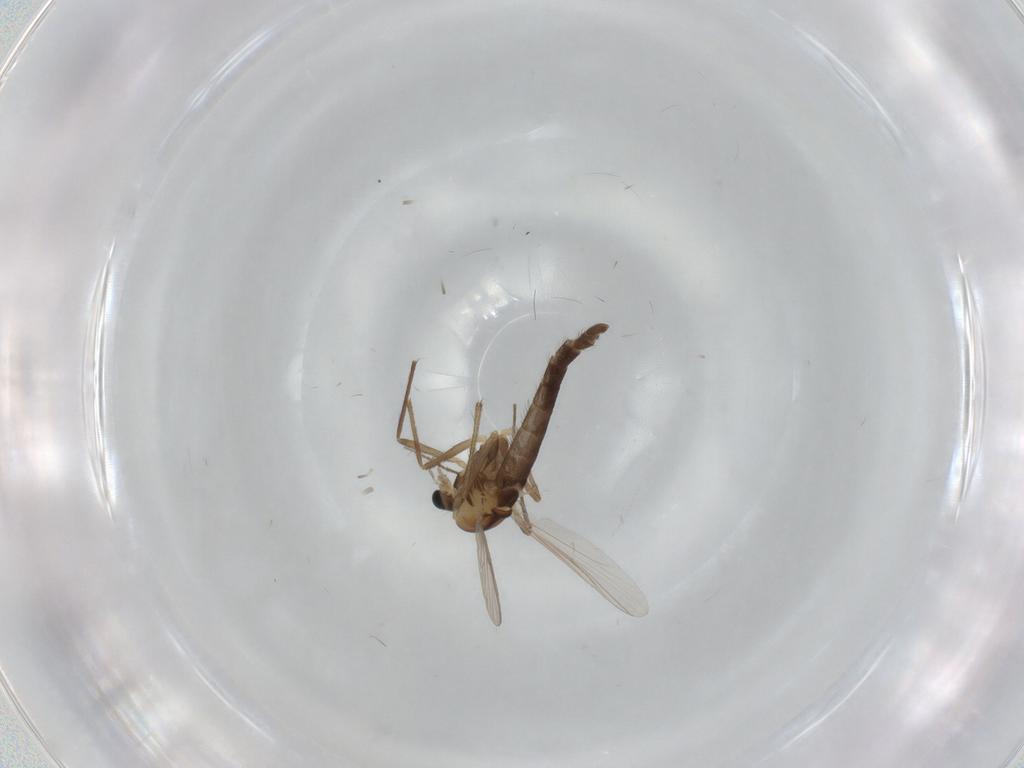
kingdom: Animalia
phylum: Arthropoda
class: Insecta
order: Diptera
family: Chironomidae
